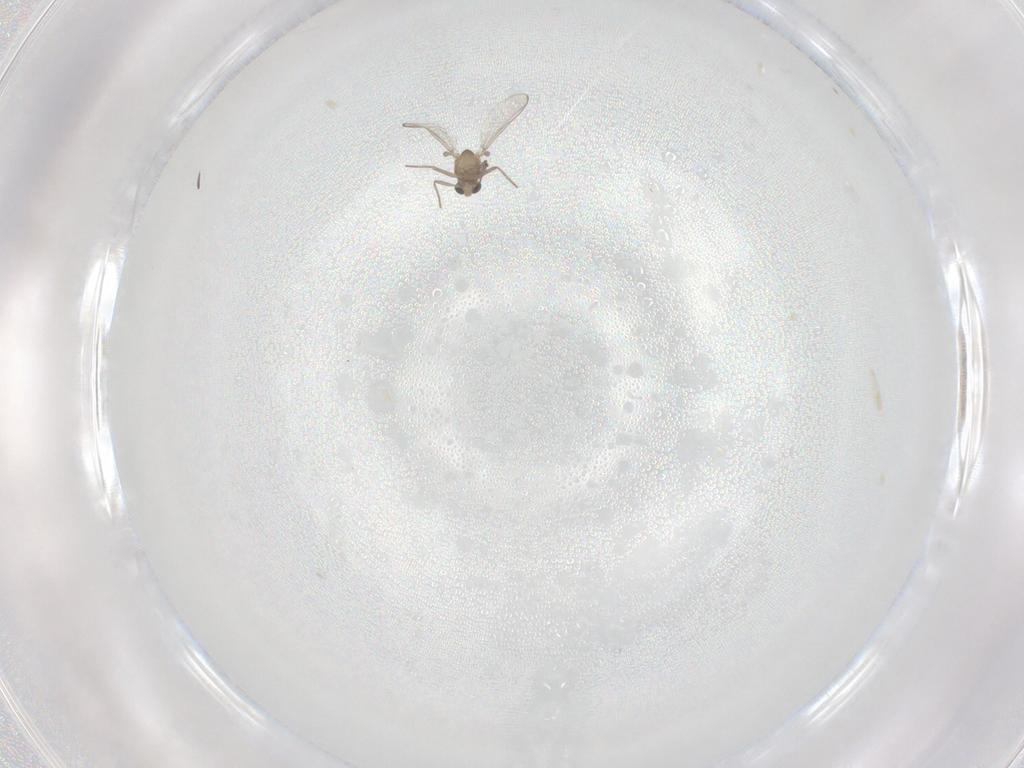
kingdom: Animalia
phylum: Arthropoda
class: Insecta
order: Diptera
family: Chironomidae
